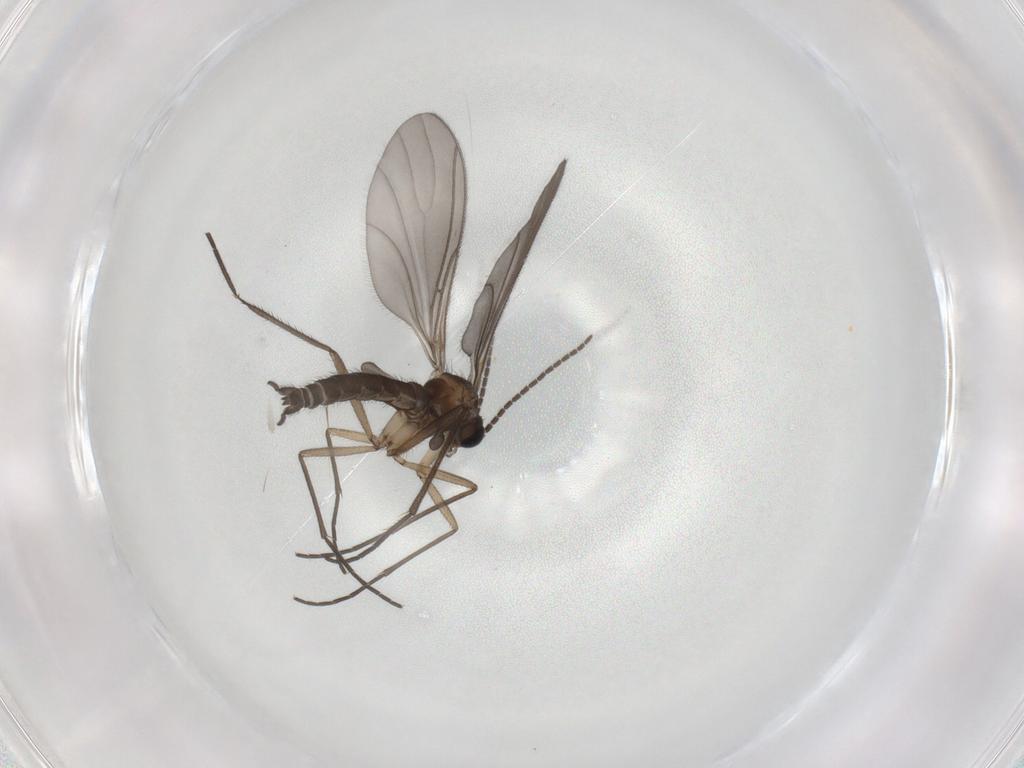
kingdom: Animalia
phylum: Arthropoda
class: Insecta
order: Diptera
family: Sciaridae
